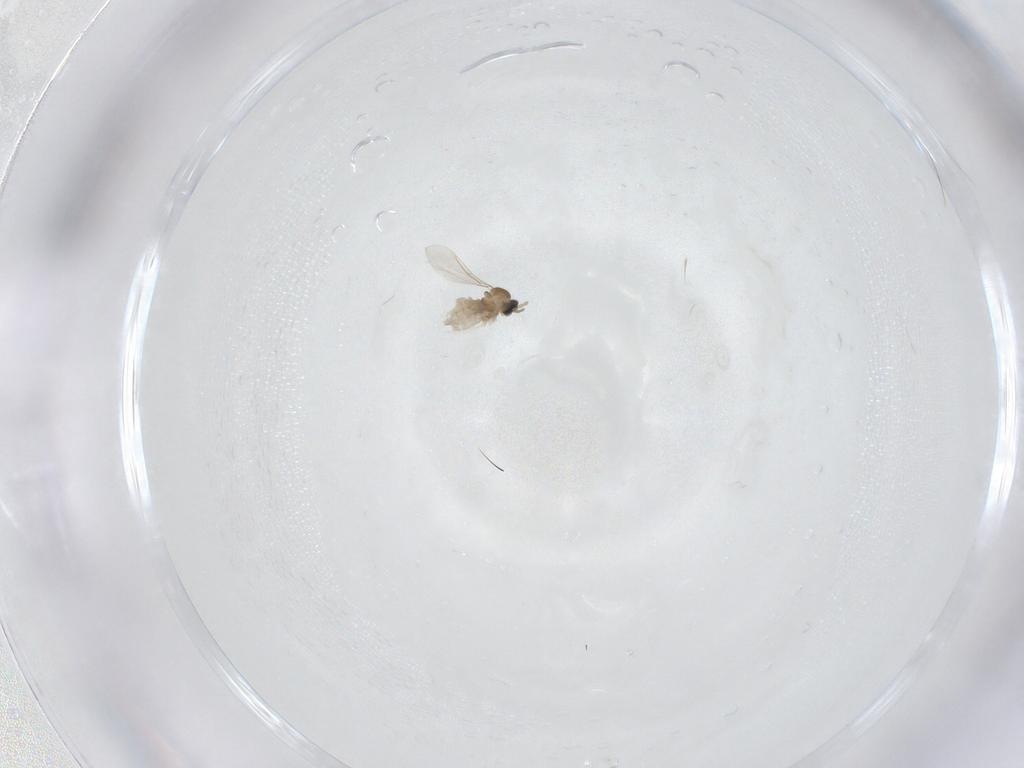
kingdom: Animalia
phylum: Arthropoda
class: Insecta
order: Diptera
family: Cecidomyiidae
